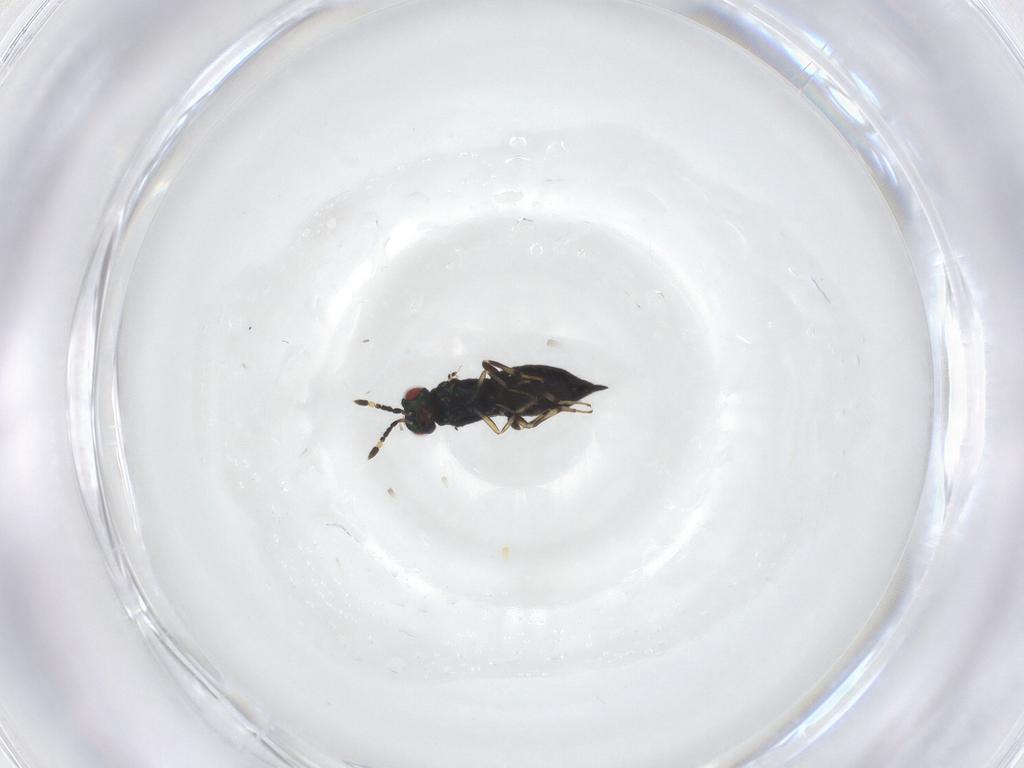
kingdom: Animalia
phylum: Arthropoda
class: Insecta
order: Hymenoptera
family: Eulophidae
